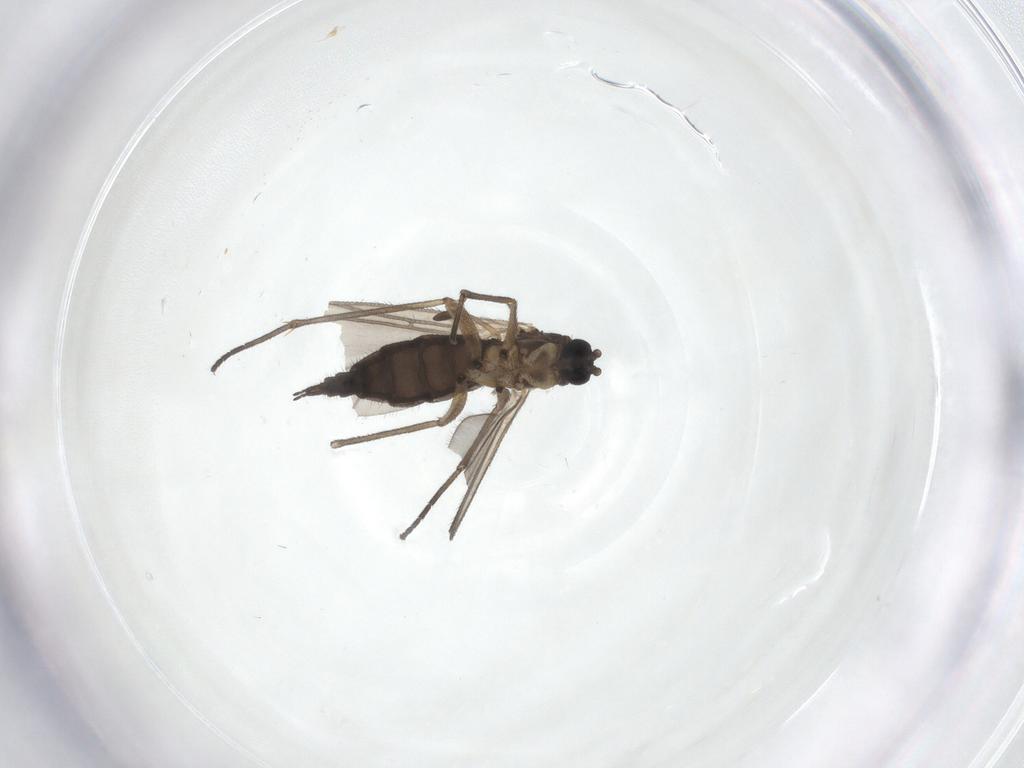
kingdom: Animalia
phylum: Arthropoda
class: Insecta
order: Diptera
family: Sciaridae
